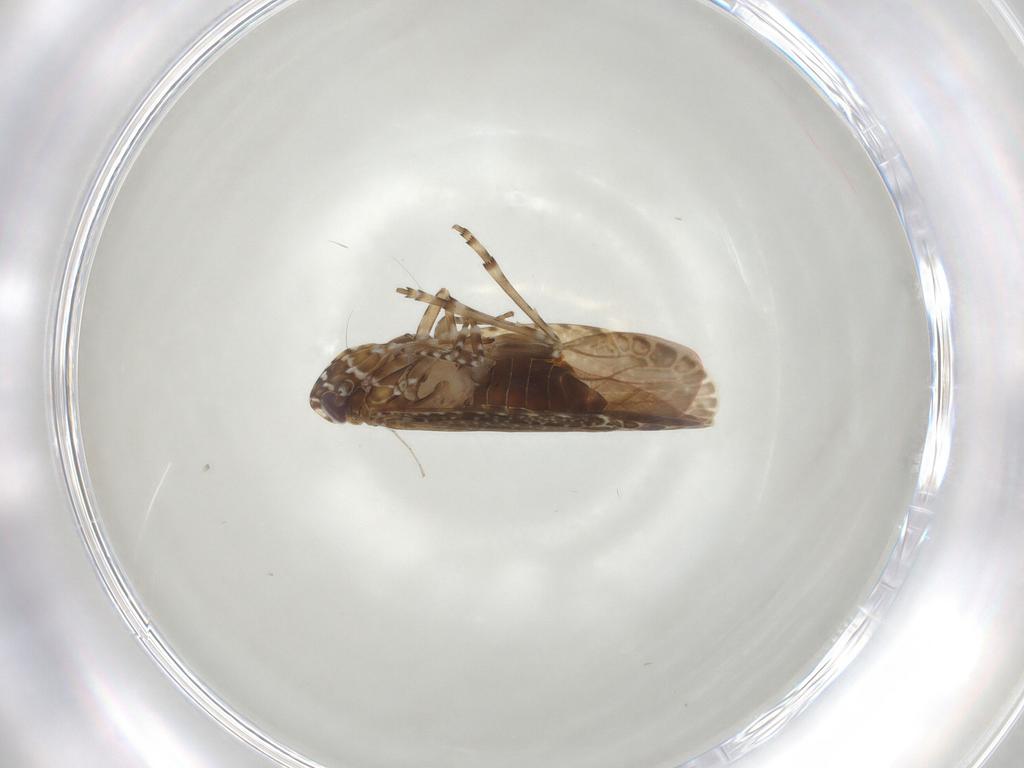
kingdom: Animalia
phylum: Arthropoda
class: Insecta
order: Hemiptera
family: Achilidae
